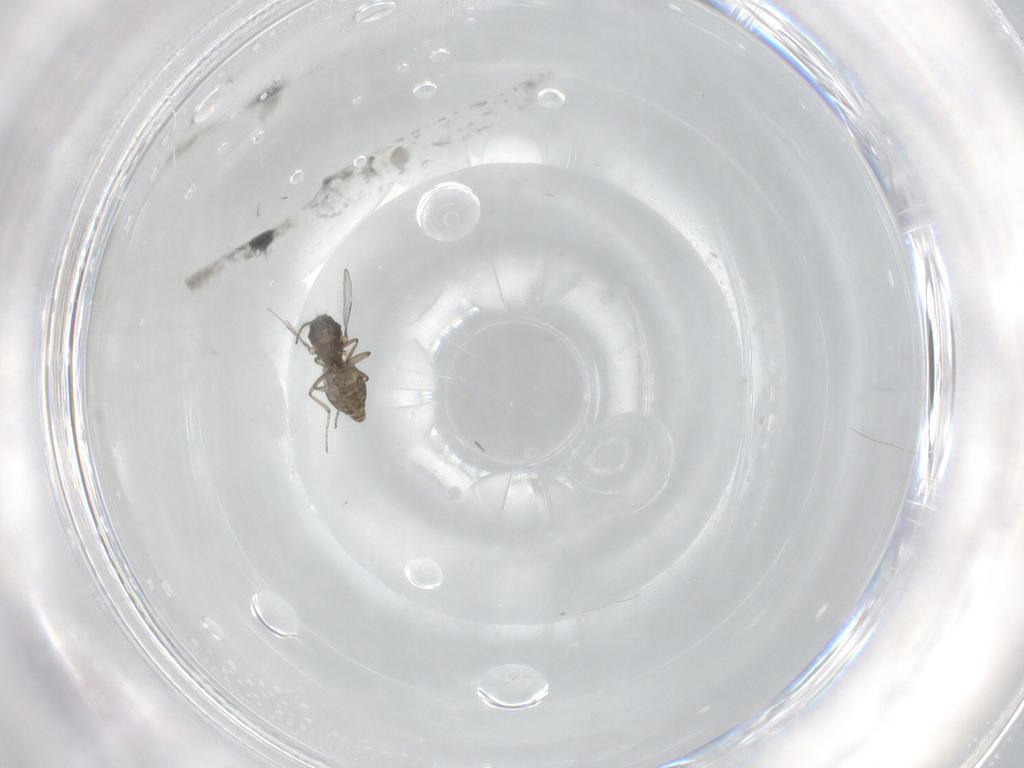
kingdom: Animalia
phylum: Arthropoda
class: Insecta
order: Diptera
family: Ceratopogonidae
